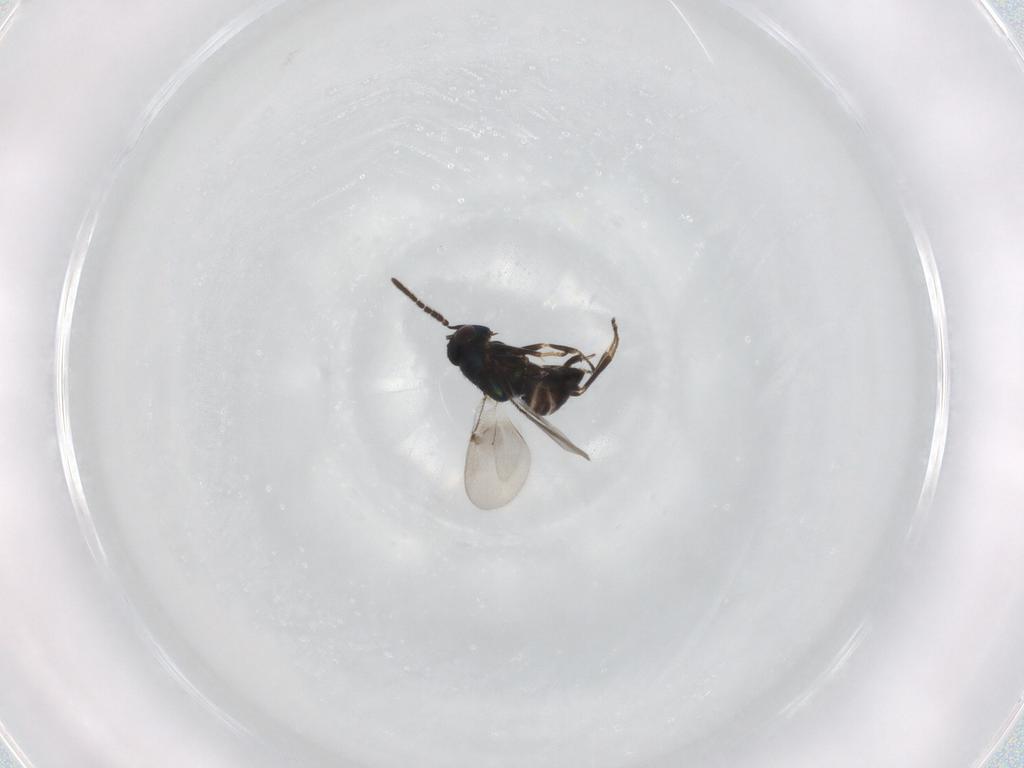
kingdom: Animalia
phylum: Arthropoda
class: Insecta
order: Hymenoptera
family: Encyrtidae
